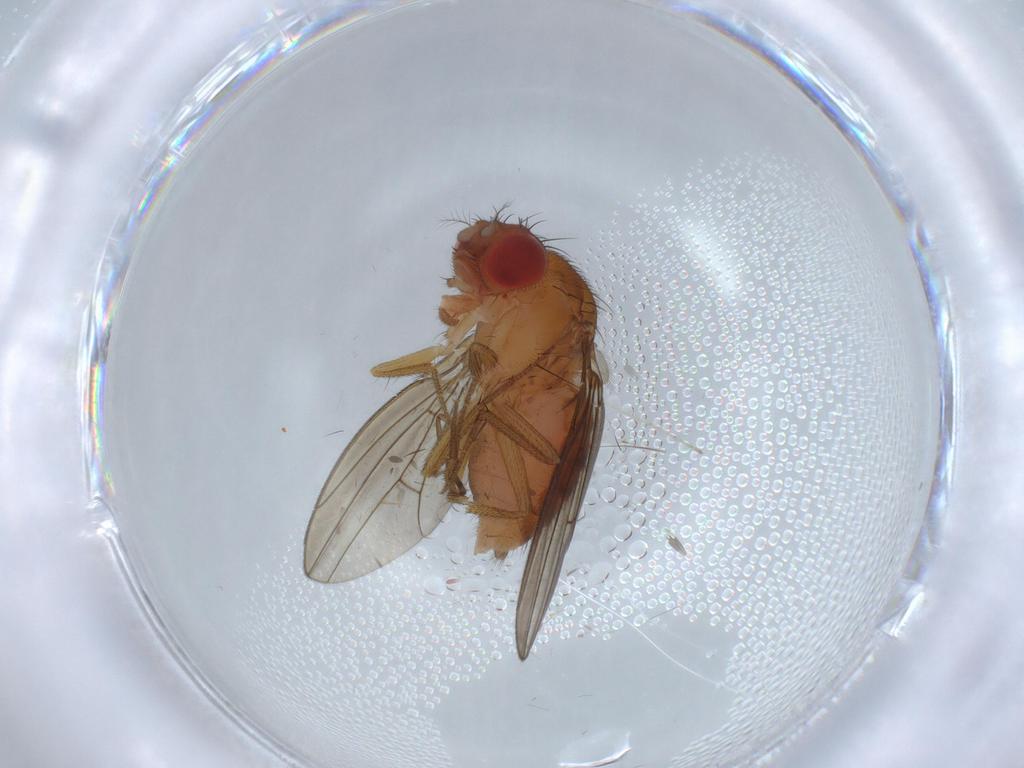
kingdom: Animalia
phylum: Arthropoda
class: Insecta
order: Diptera
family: Drosophilidae
